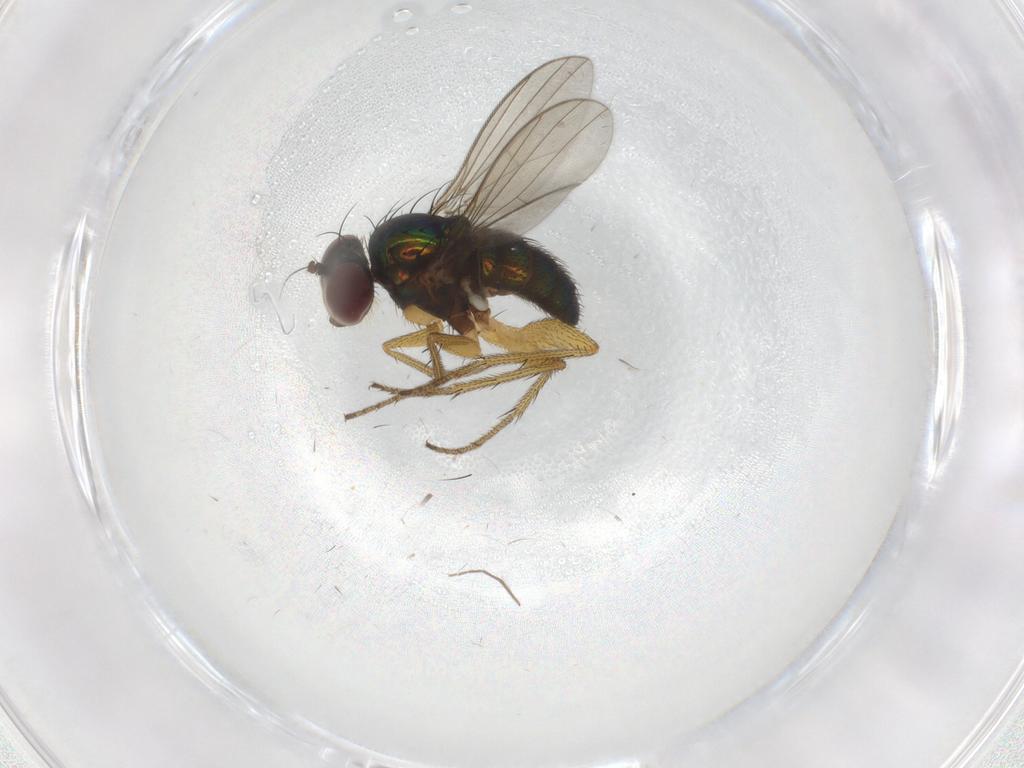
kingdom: Animalia
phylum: Arthropoda
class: Insecta
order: Diptera
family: Dolichopodidae
